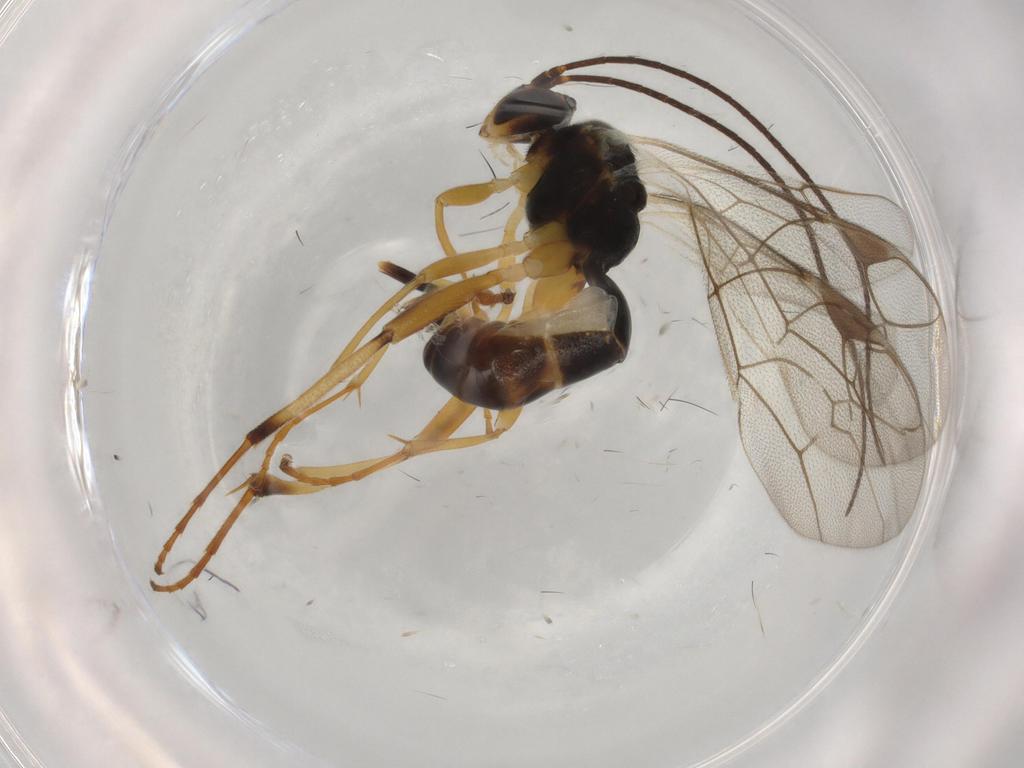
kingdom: Animalia
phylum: Arthropoda
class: Insecta
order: Hymenoptera
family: Ichneumonidae
